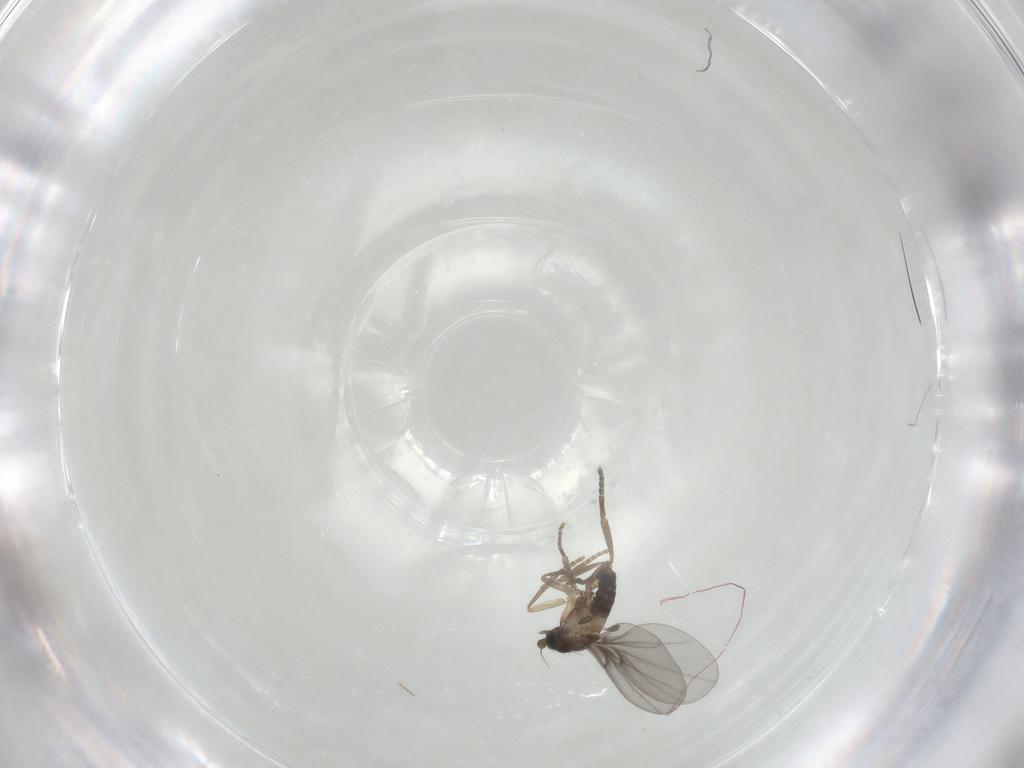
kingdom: Animalia
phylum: Arthropoda
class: Insecta
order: Diptera
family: Phoridae
